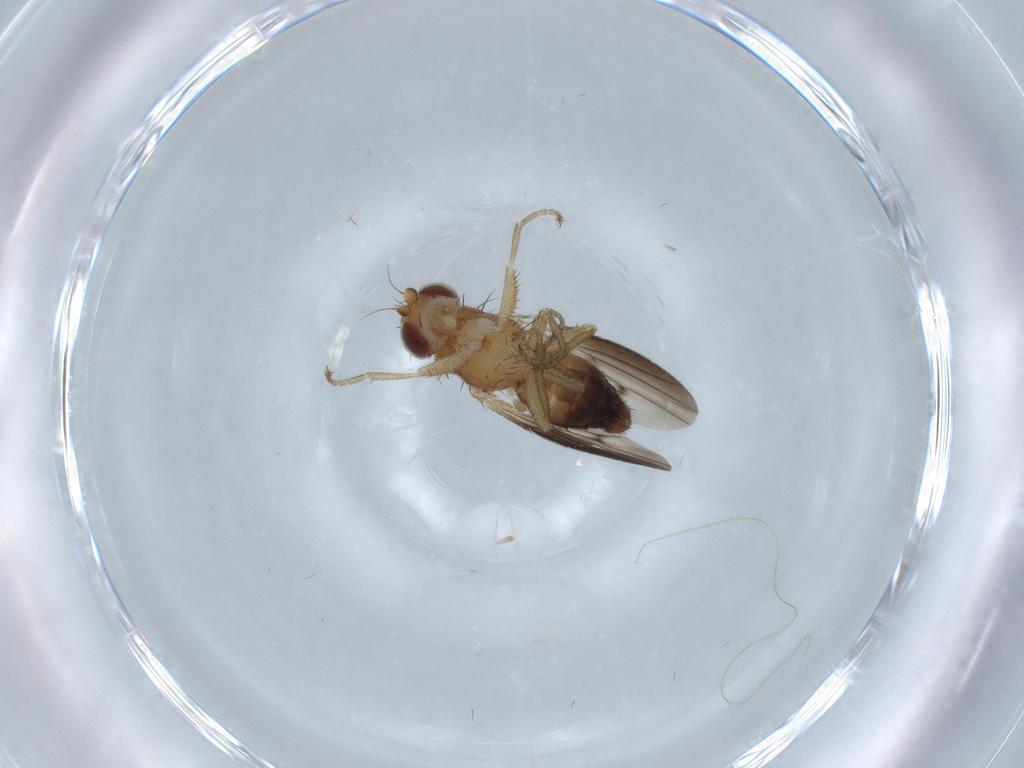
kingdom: Animalia
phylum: Arthropoda
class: Insecta
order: Diptera
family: Heleomyzidae
